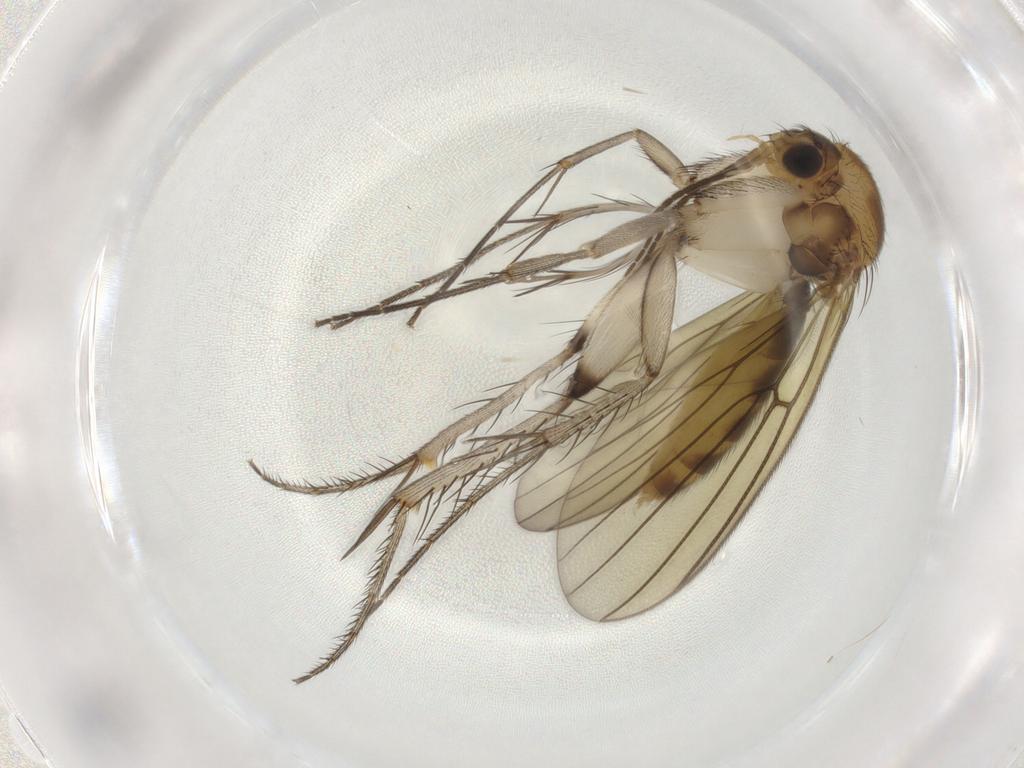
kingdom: Animalia
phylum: Arthropoda
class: Insecta
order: Diptera
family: Mycetophilidae
